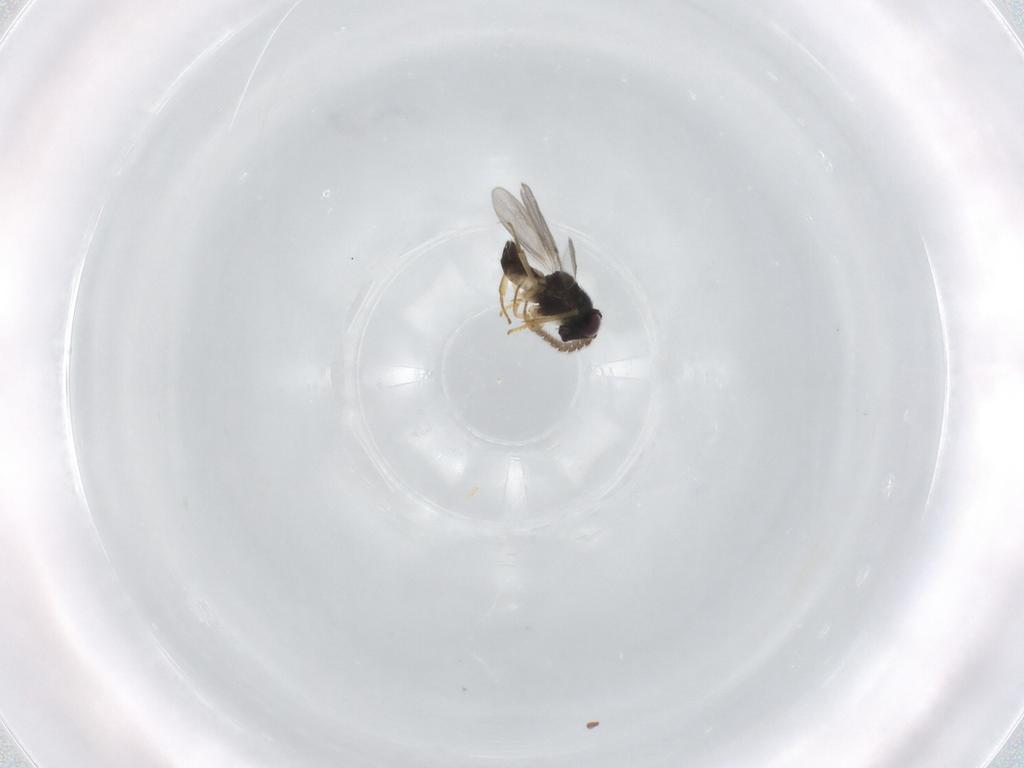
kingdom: Animalia
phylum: Arthropoda
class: Insecta
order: Hymenoptera
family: Encyrtidae
